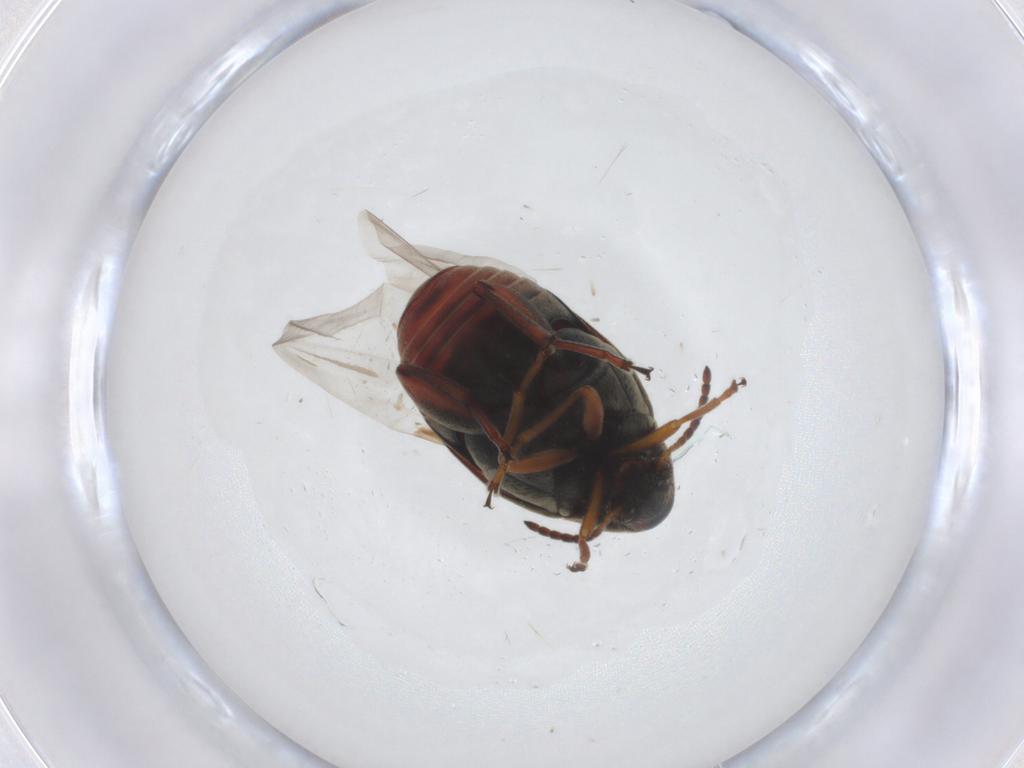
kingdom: Animalia
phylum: Arthropoda
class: Insecta
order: Coleoptera
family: Chrysomelidae
